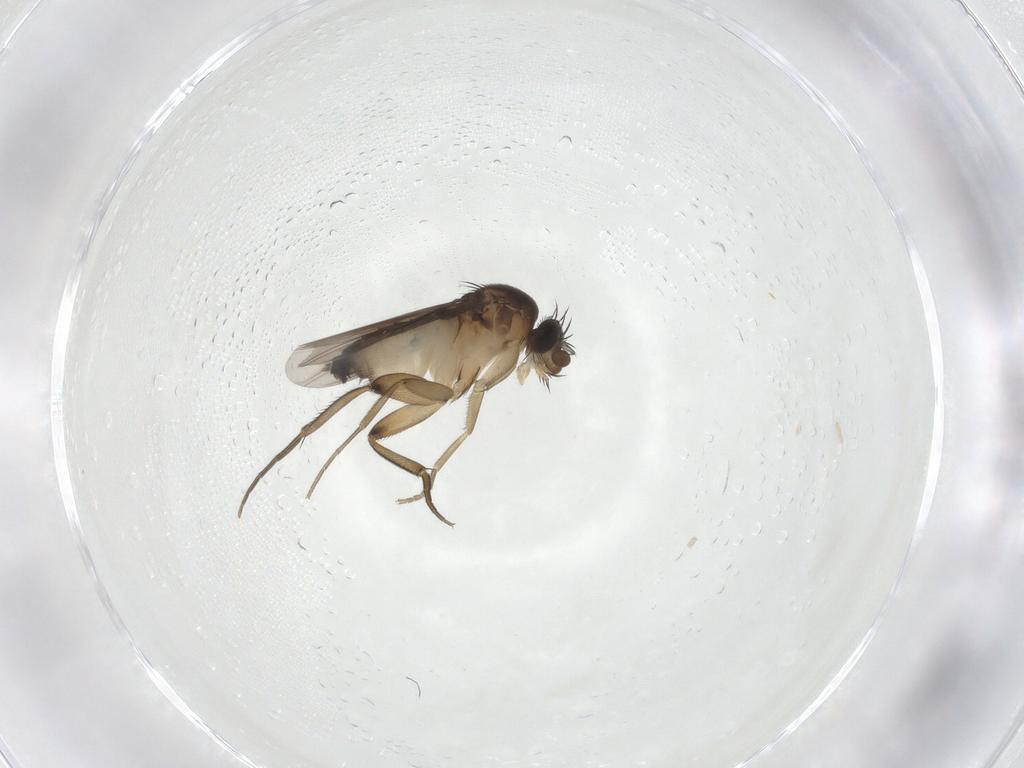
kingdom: Animalia
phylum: Arthropoda
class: Insecta
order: Diptera
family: Phoridae
